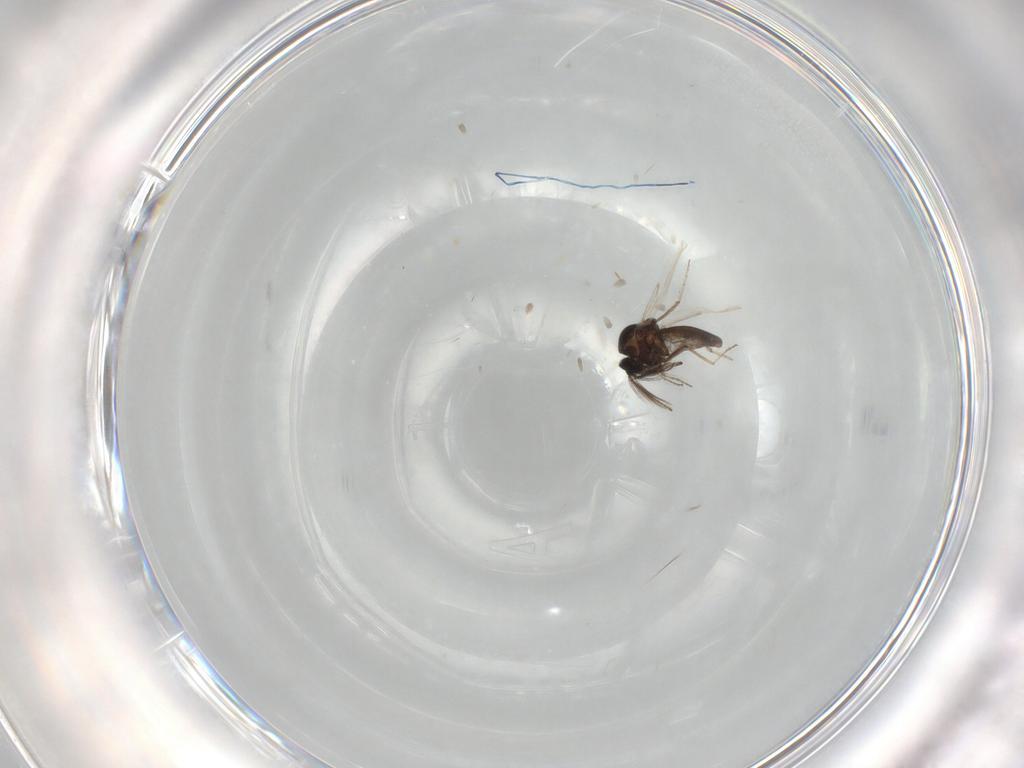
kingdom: Animalia
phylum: Arthropoda
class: Insecta
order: Diptera
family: Ceratopogonidae
